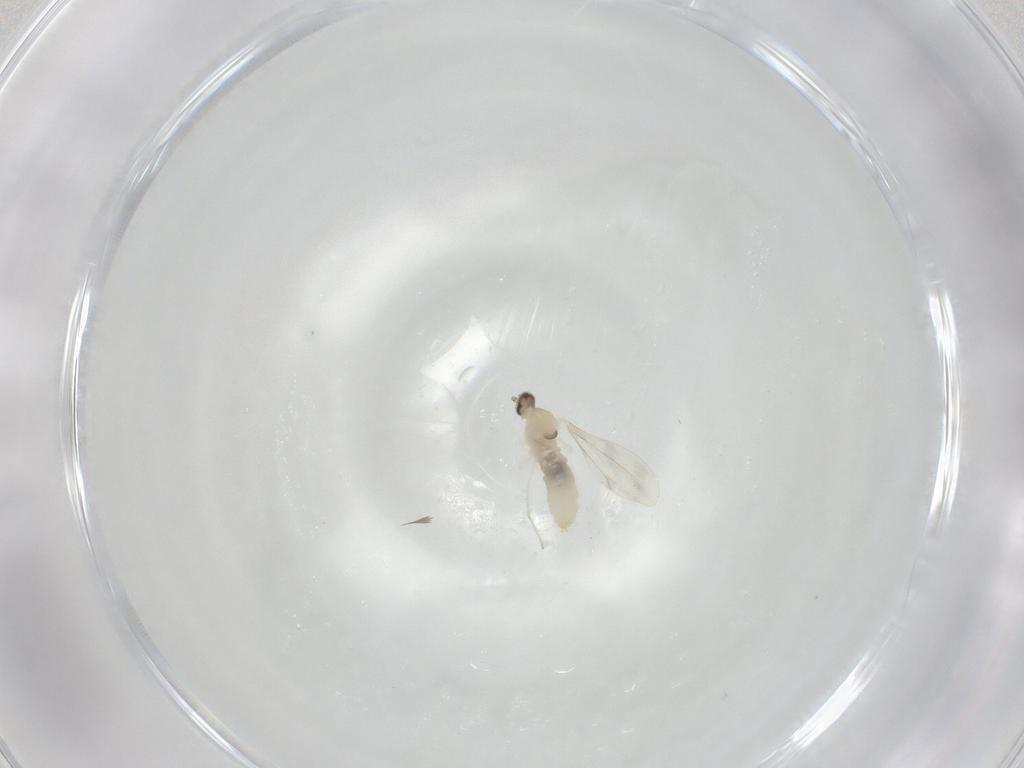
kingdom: Animalia
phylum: Arthropoda
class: Insecta
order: Diptera
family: Cecidomyiidae
